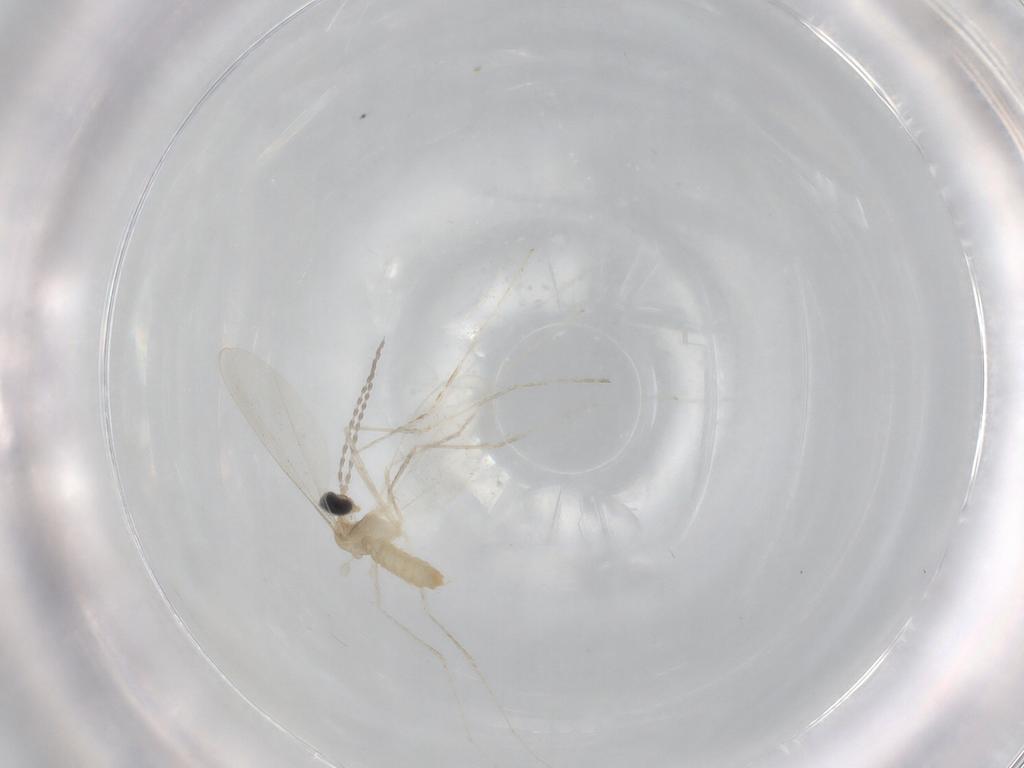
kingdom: Animalia
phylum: Arthropoda
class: Insecta
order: Diptera
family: Cecidomyiidae
